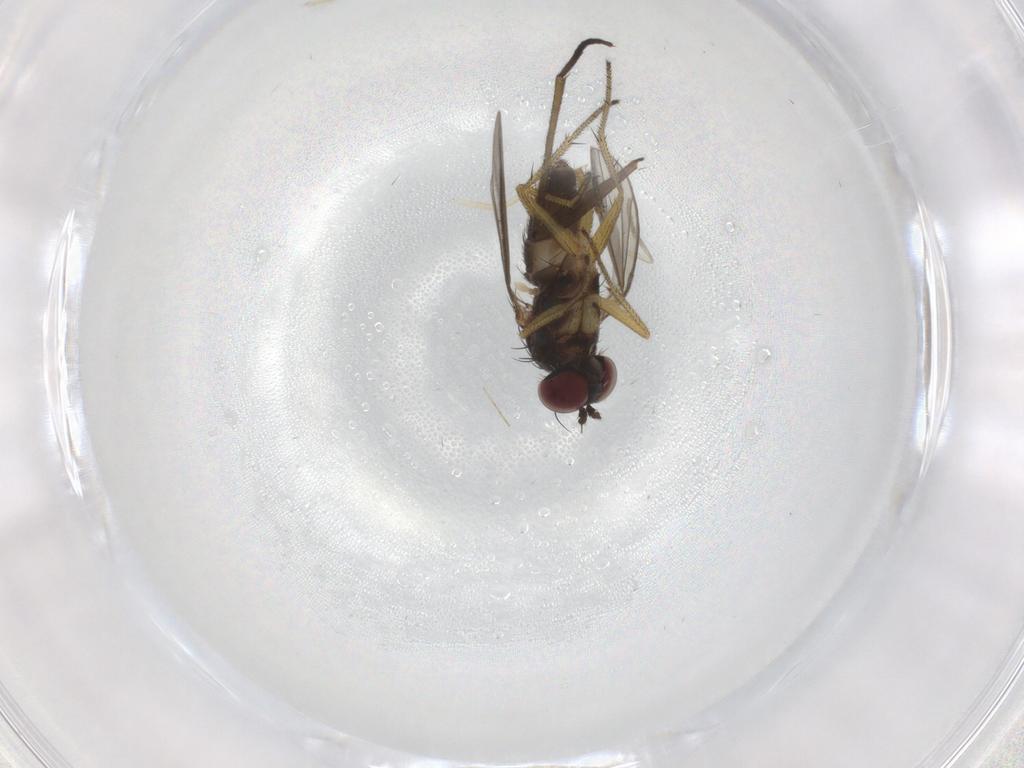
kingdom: Animalia
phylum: Arthropoda
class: Insecta
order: Diptera
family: Sciaridae
